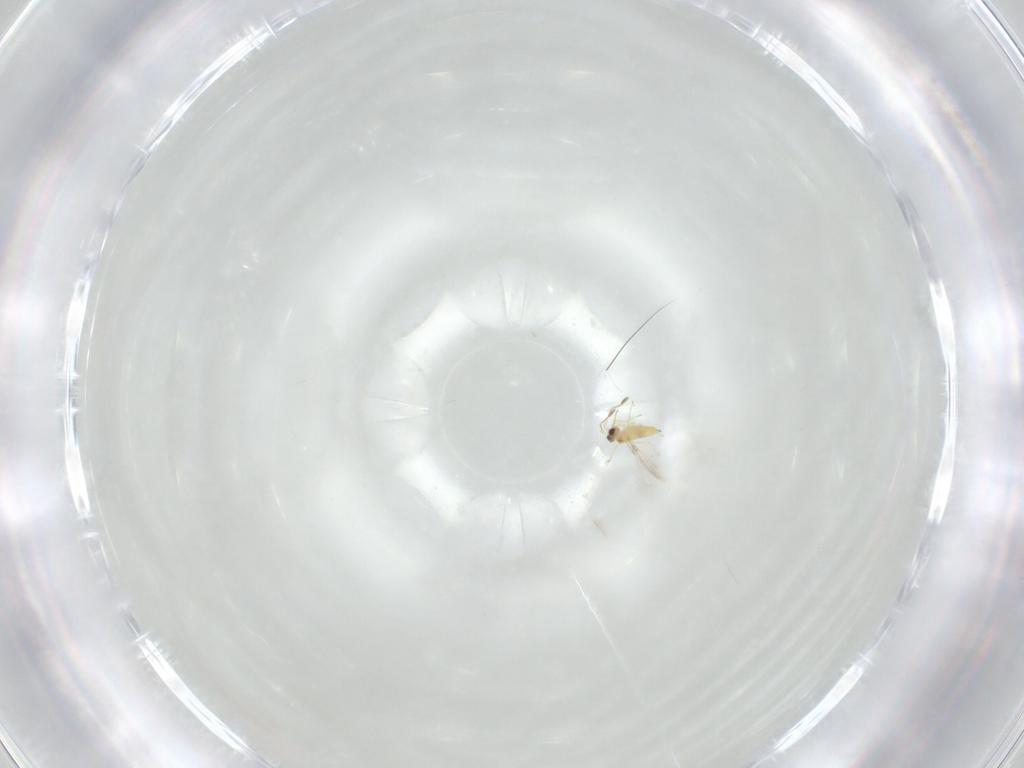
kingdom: Animalia
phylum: Arthropoda
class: Insecta
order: Hymenoptera
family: Mymaridae
